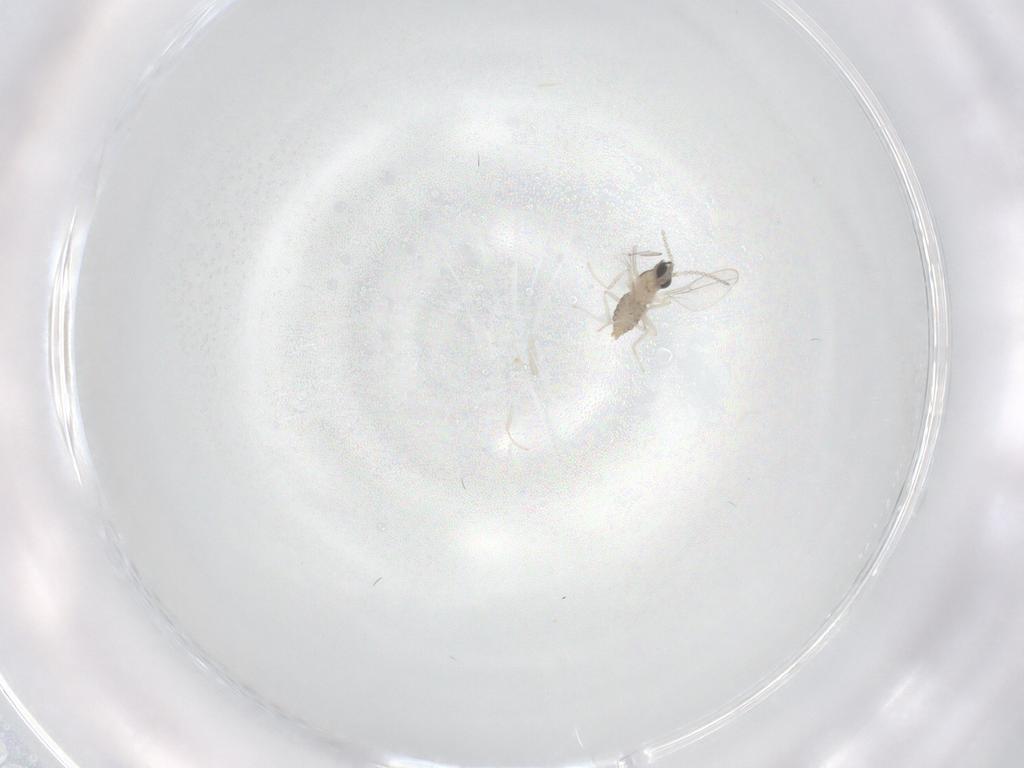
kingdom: Animalia
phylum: Arthropoda
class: Insecta
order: Diptera
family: Cecidomyiidae
